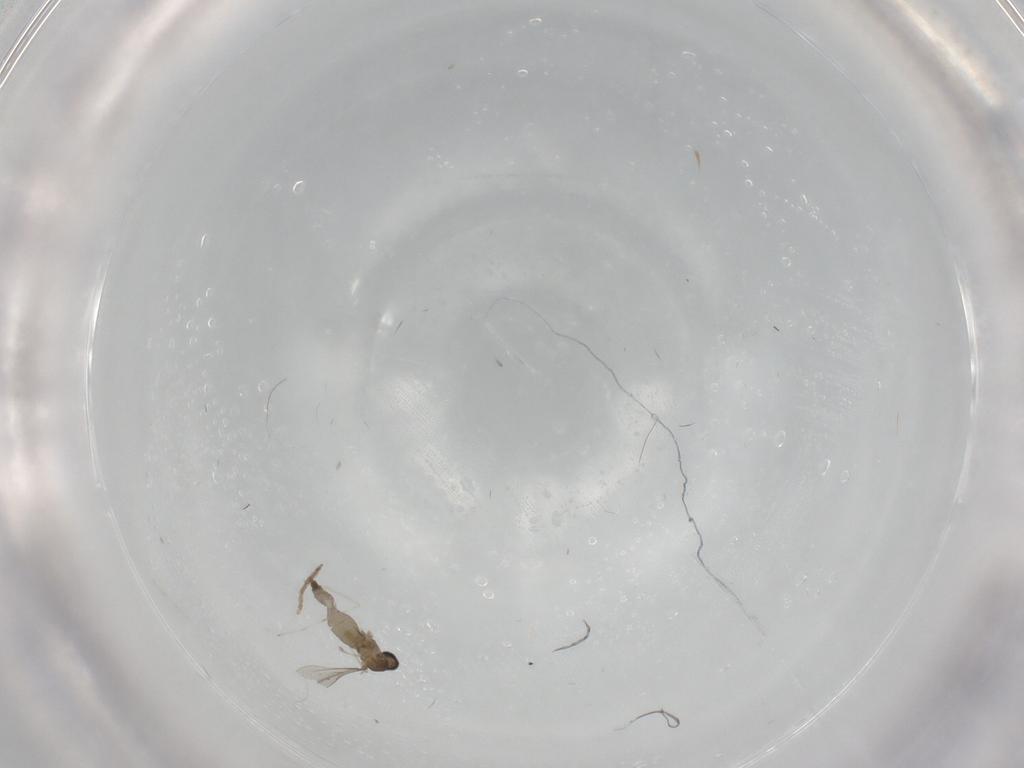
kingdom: Animalia
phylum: Arthropoda
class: Insecta
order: Diptera
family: Cecidomyiidae
